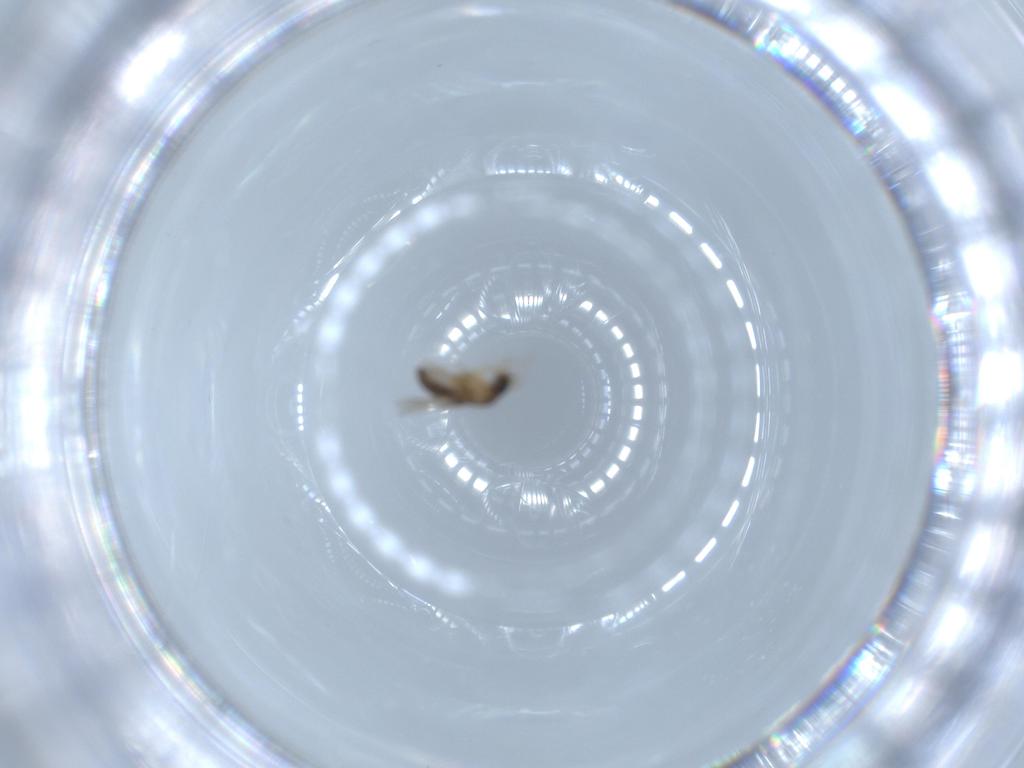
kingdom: Animalia
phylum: Arthropoda
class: Insecta
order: Diptera
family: Phoridae
